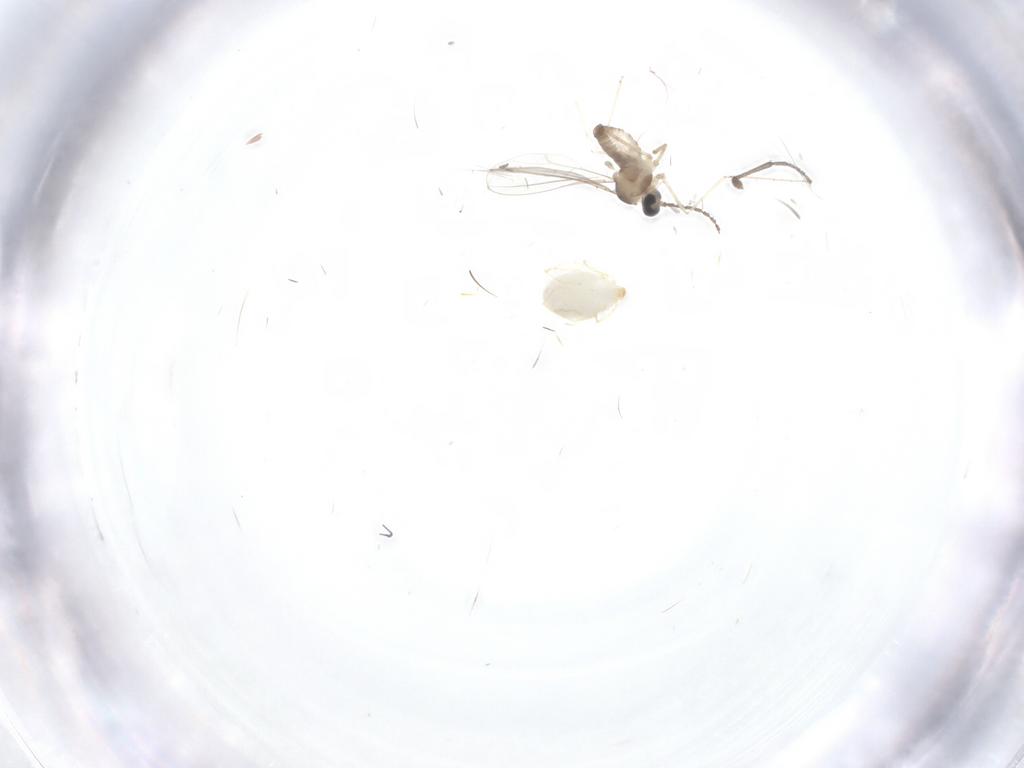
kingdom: Animalia
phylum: Arthropoda
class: Insecta
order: Diptera
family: Sciaridae
